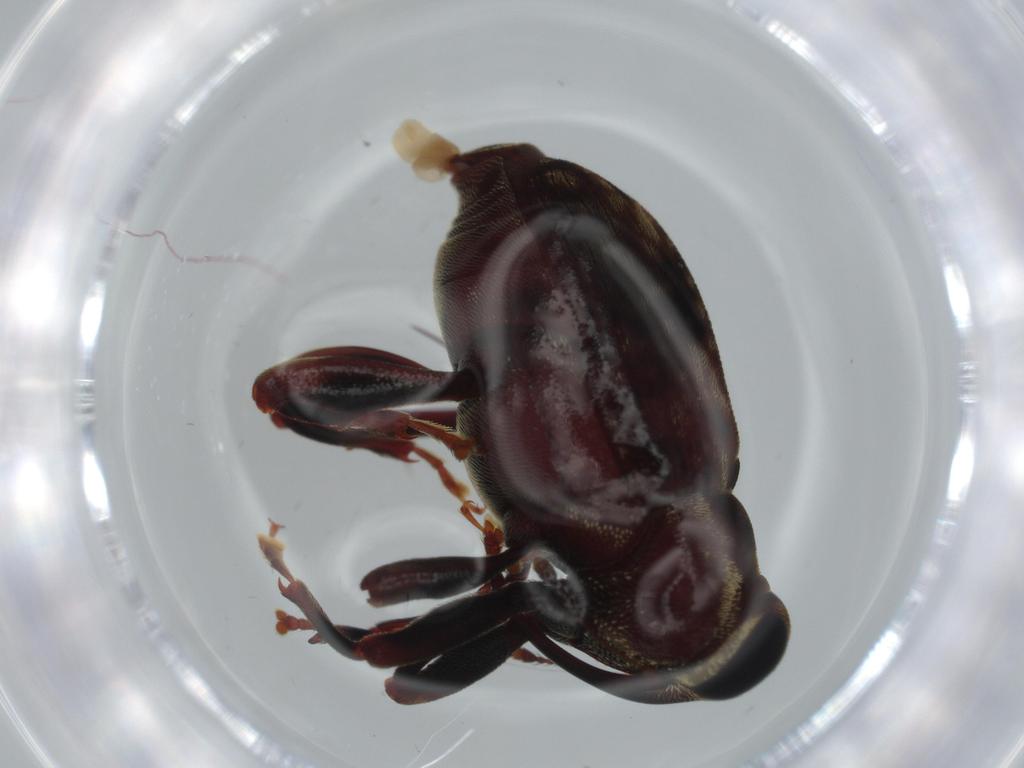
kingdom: Animalia
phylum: Arthropoda
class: Insecta
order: Coleoptera
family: Curculionidae
